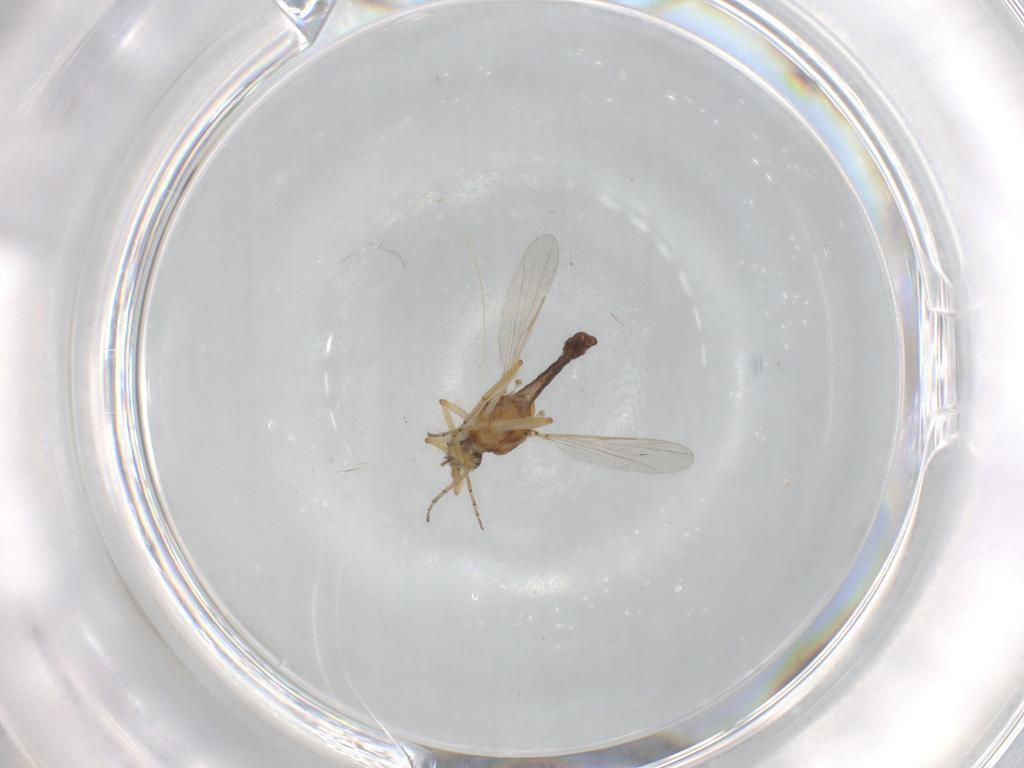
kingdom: Animalia
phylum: Arthropoda
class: Insecta
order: Diptera
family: Ceratopogonidae
